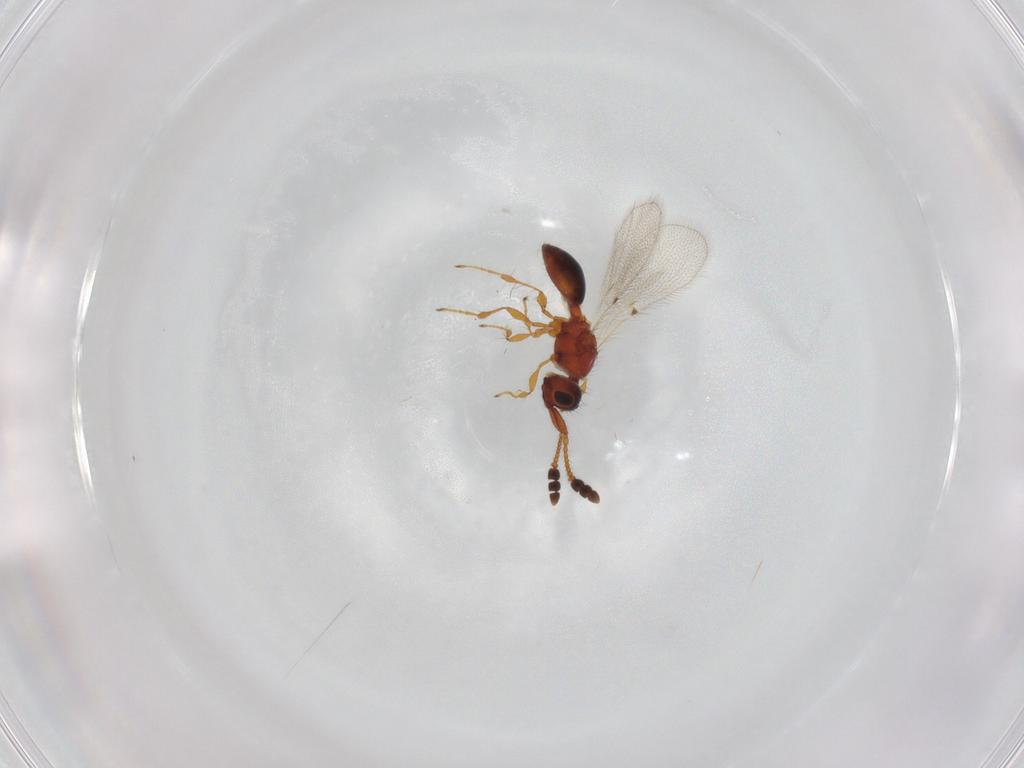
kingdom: Animalia
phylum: Arthropoda
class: Insecta
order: Hymenoptera
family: Diapriidae
